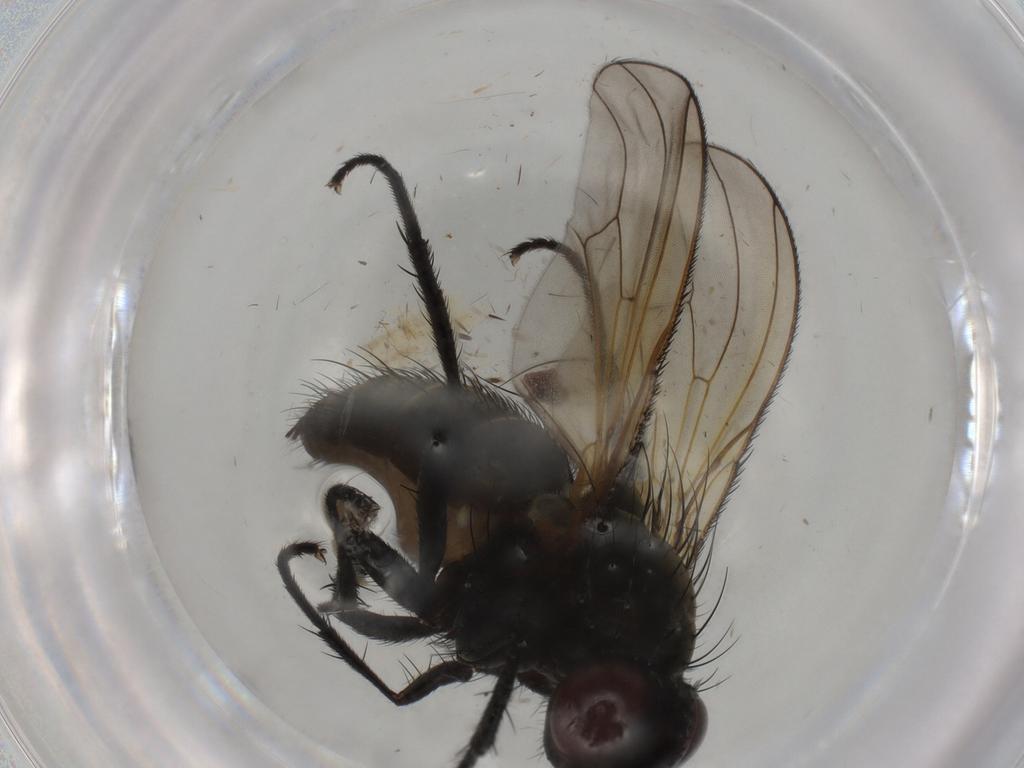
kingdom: Animalia
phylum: Arthropoda
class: Insecta
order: Diptera
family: Anthomyiidae
